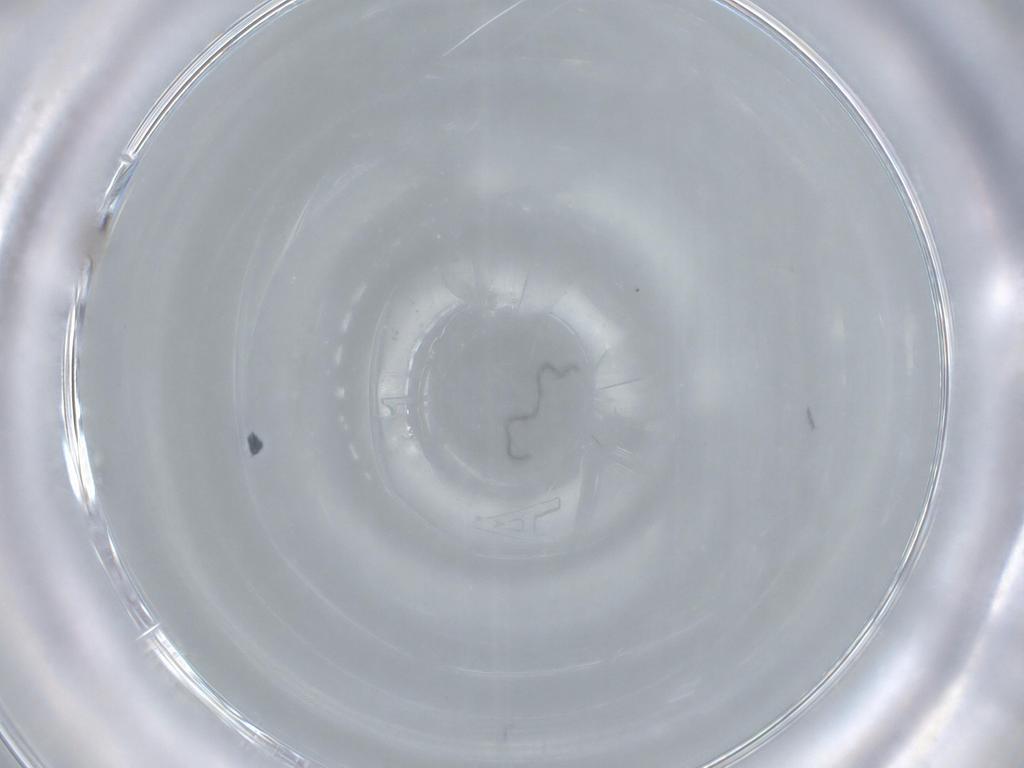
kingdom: Animalia
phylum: Arthropoda
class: Insecta
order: Diptera
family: Cecidomyiidae
